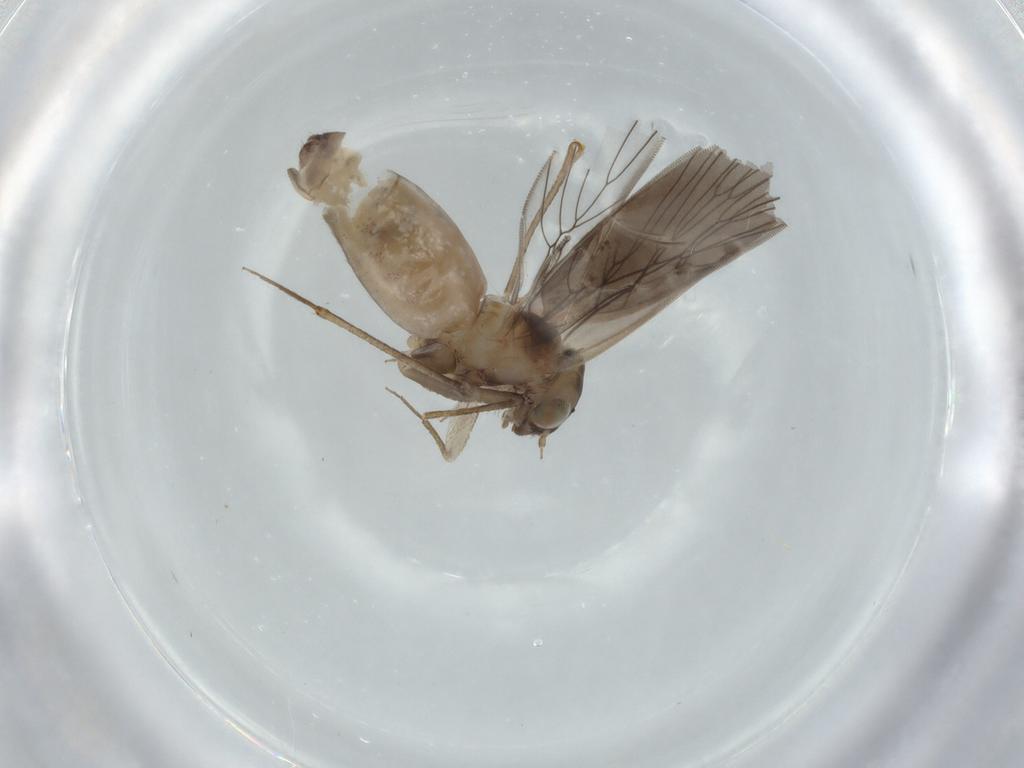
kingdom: Animalia
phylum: Arthropoda
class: Insecta
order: Psocodea
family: Lepidopsocidae
